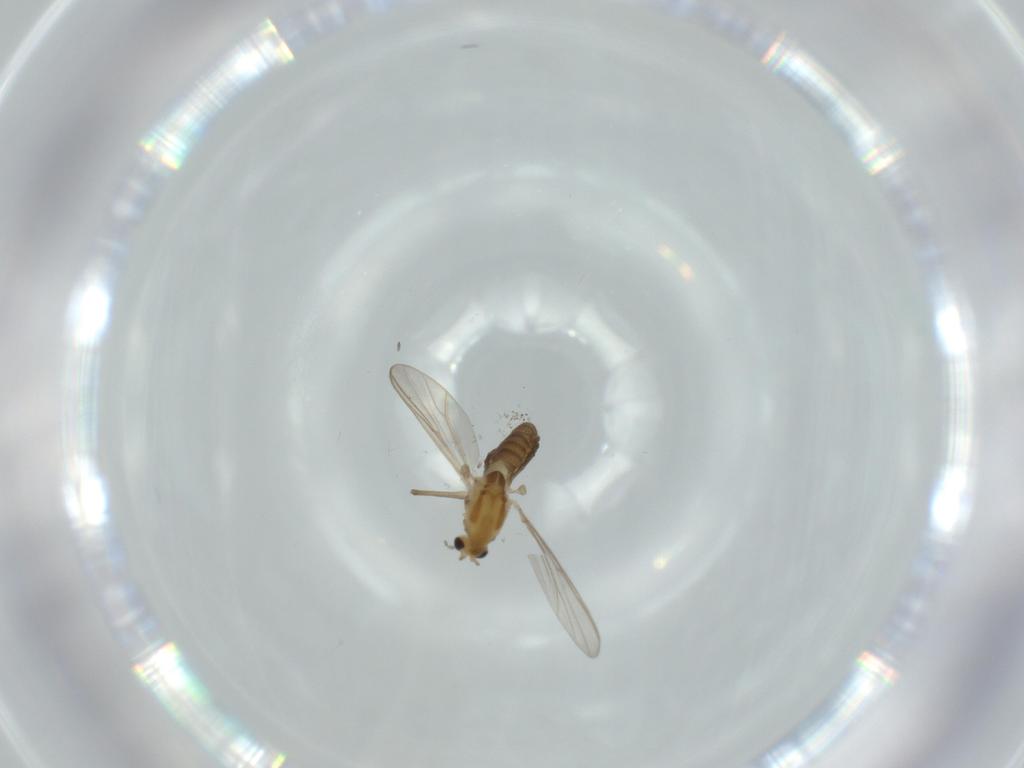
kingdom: Animalia
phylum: Arthropoda
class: Insecta
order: Diptera
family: Chironomidae
